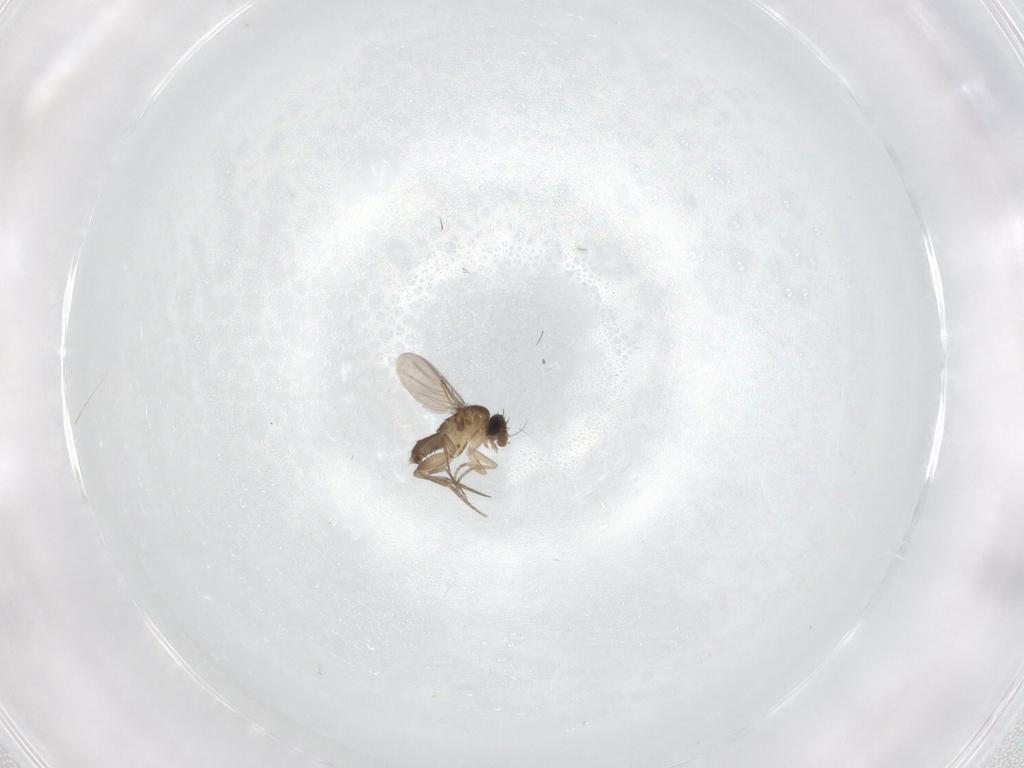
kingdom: Animalia
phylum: Arthropoda
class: Insecta
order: Diptera
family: Phoridae
